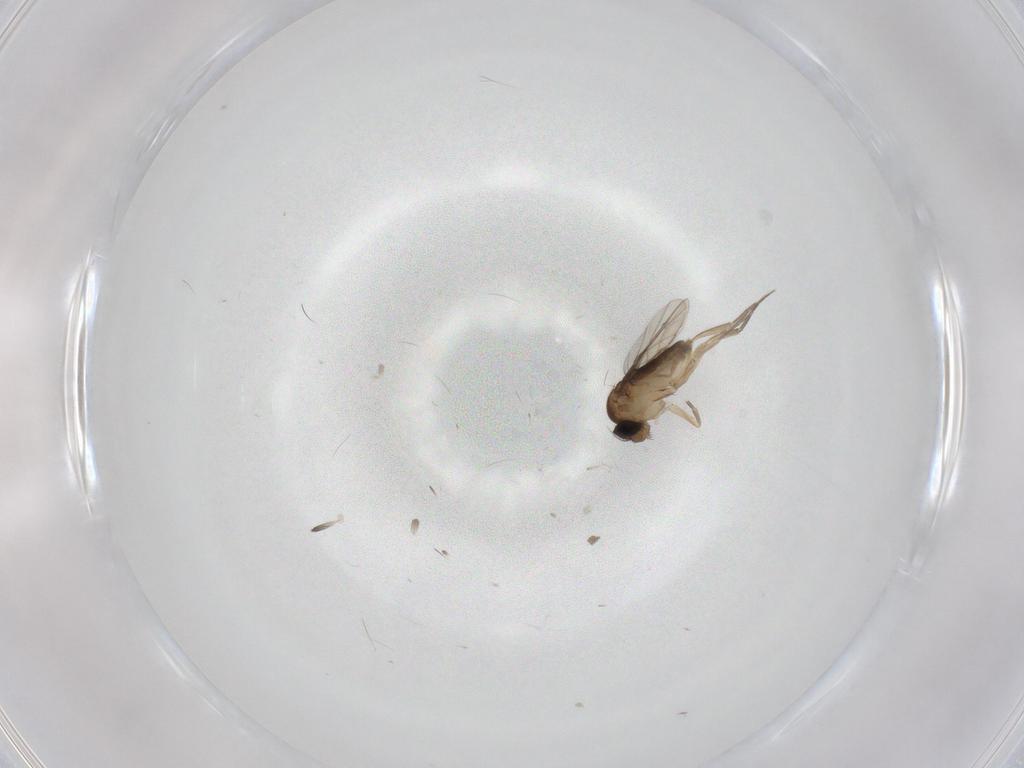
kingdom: Animalia
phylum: Arthropoda
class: Insecta
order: Diptera
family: Phoridae
